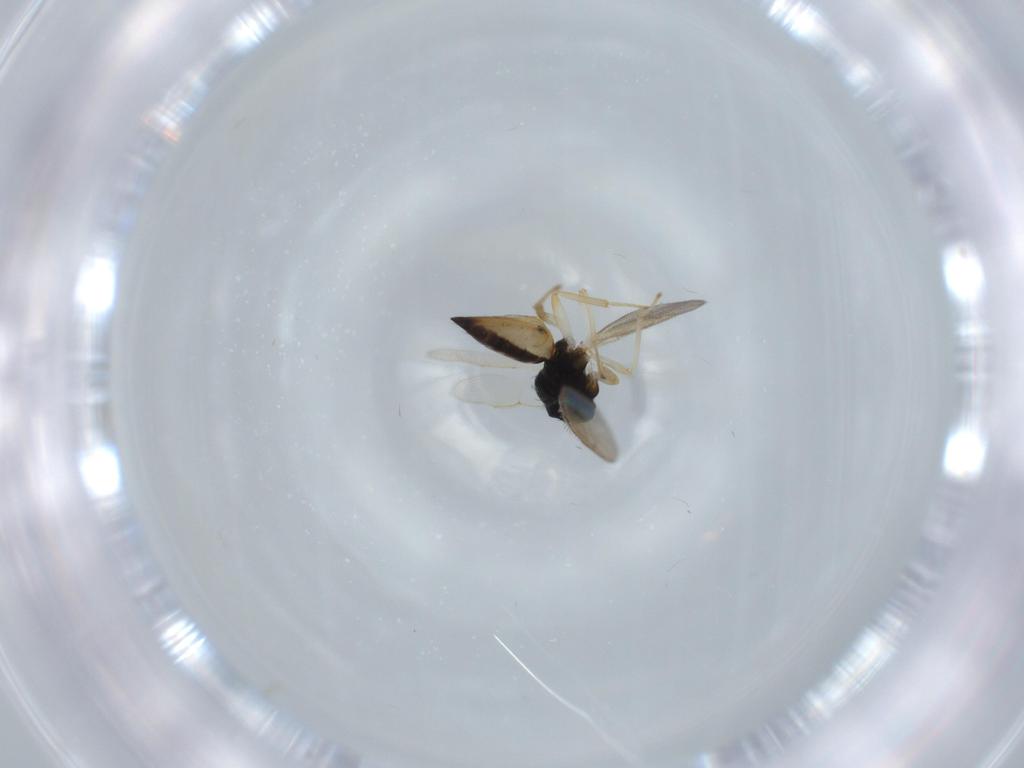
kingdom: Animalia
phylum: Arthropoda
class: Insecta
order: Hymenoptera
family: Pteromalidae
